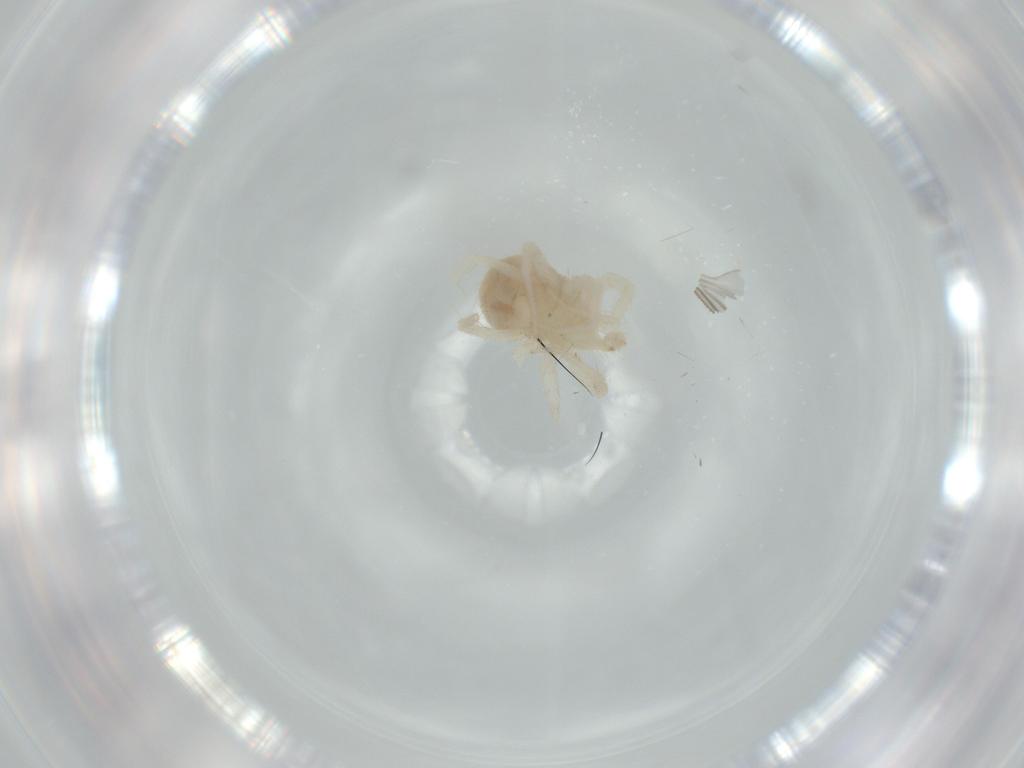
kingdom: Animalia
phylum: Arthropoda
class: Arachnida
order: Trombidiformes
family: Anystidae
